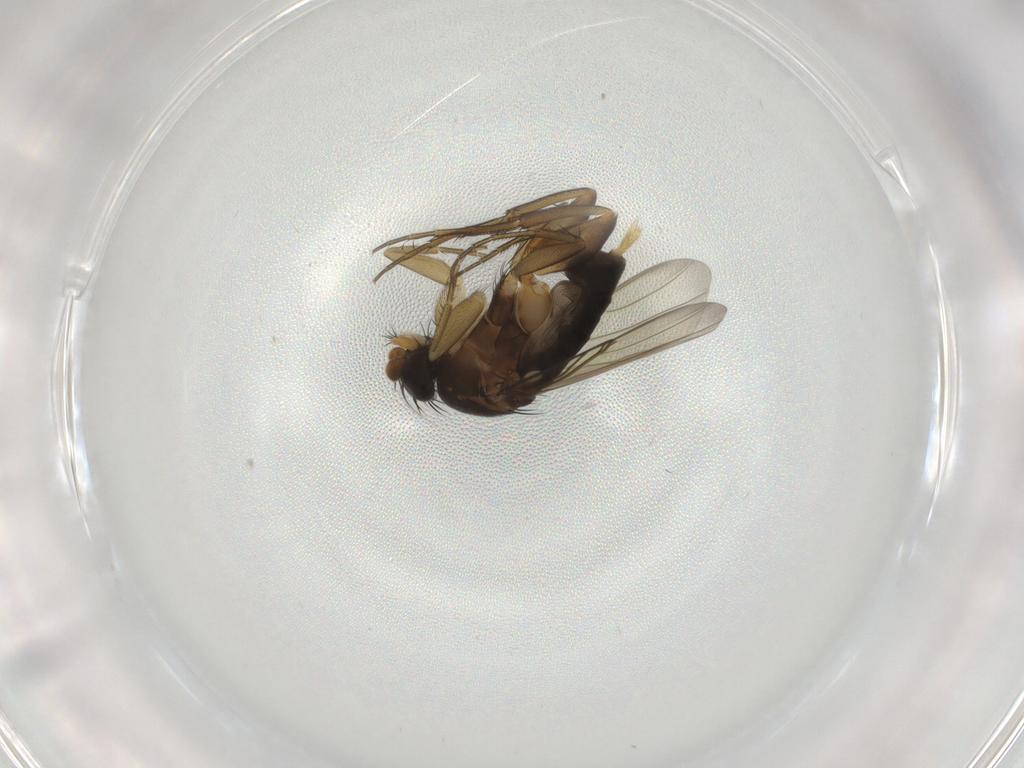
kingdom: Animalia
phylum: Arthropoda
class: Insecta
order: Diptera
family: Phoridae
